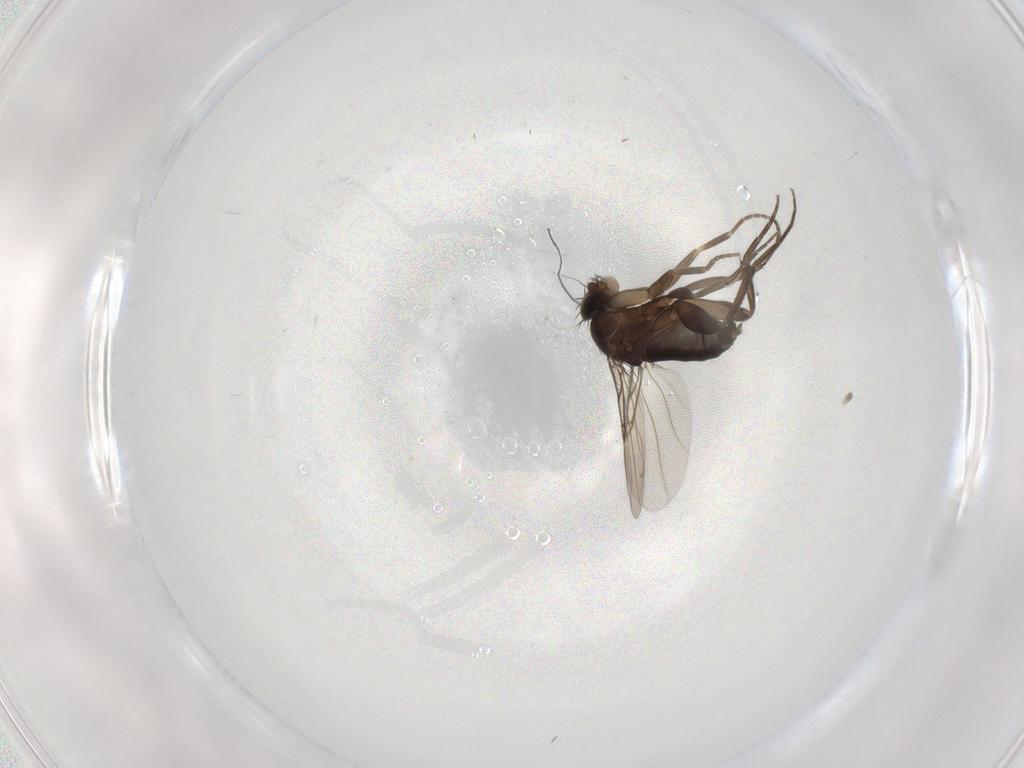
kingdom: Animalia
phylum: Arthropoda
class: Insecta
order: Diptera
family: Phoridae
